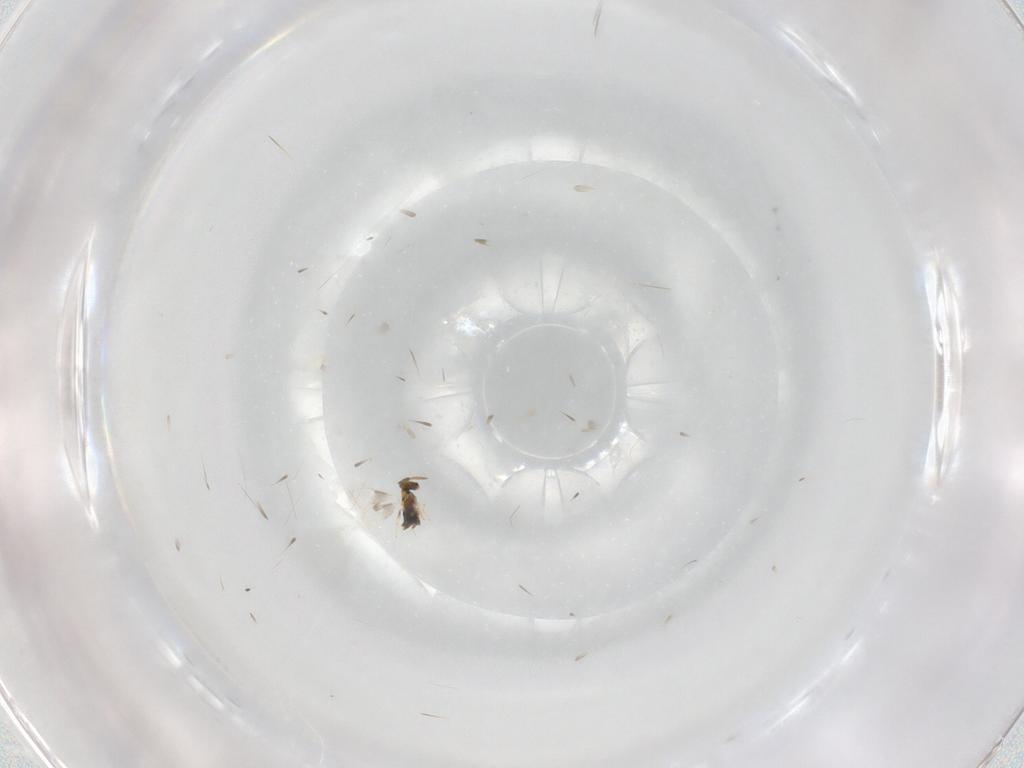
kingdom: Animalia
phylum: Arthropoda
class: Insecta
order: Hymenoptera
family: Aphelinidae
